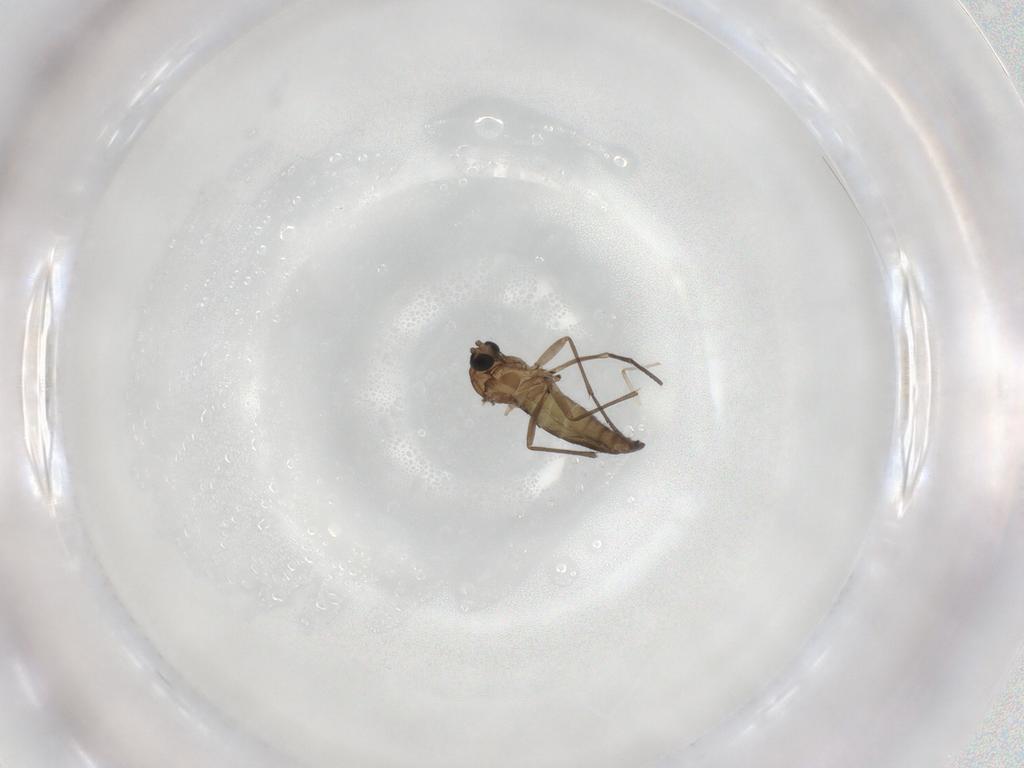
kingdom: Animalia
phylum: Arthropoda
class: Insecta
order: Diptera
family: Sciaridae
